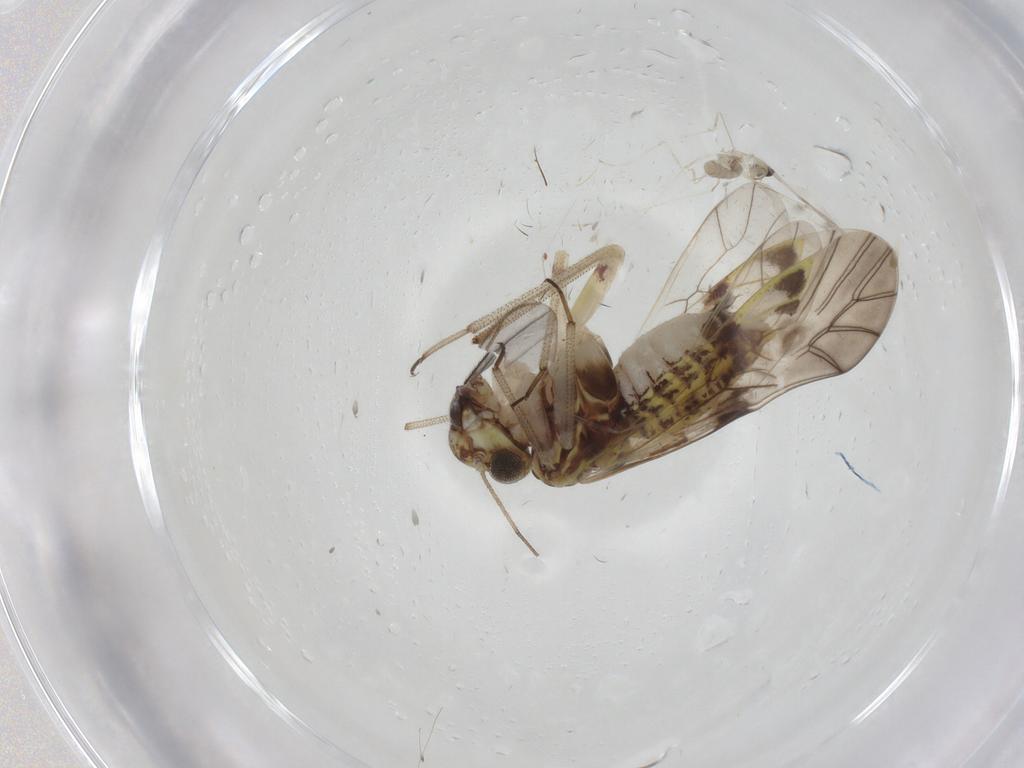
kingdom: Animalia
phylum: Arthropoda
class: Insecta
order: Diptera
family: Sciaridae
